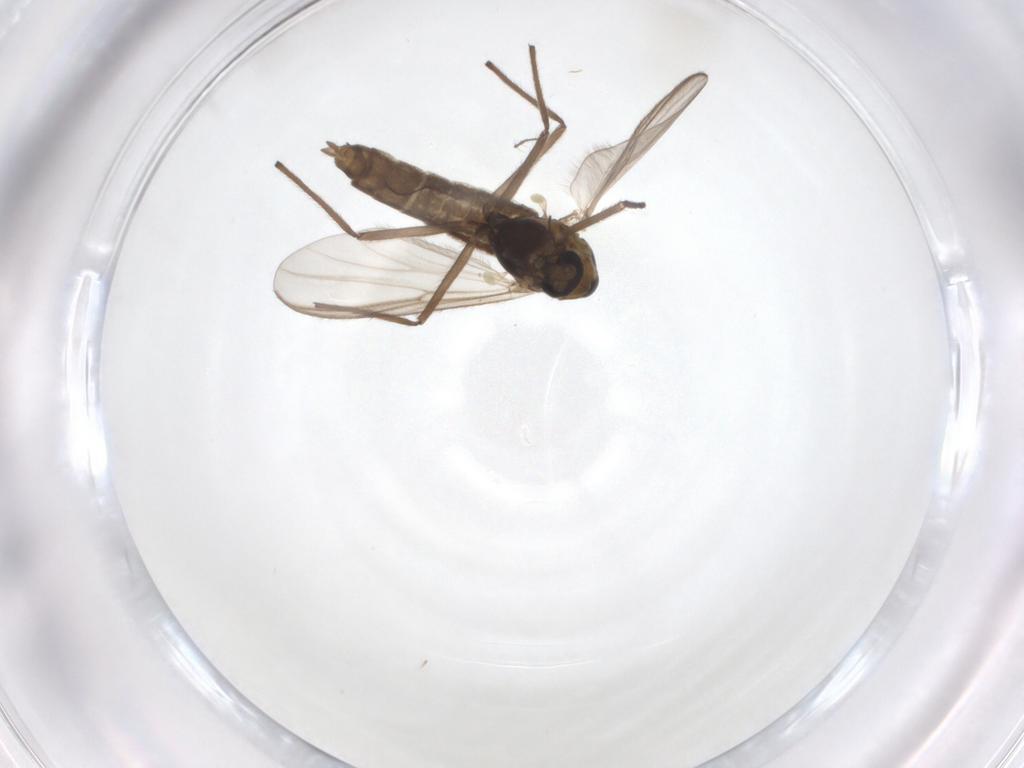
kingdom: Animalia
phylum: Arthropoda
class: Insecta
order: Diptera
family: Chironomidae
